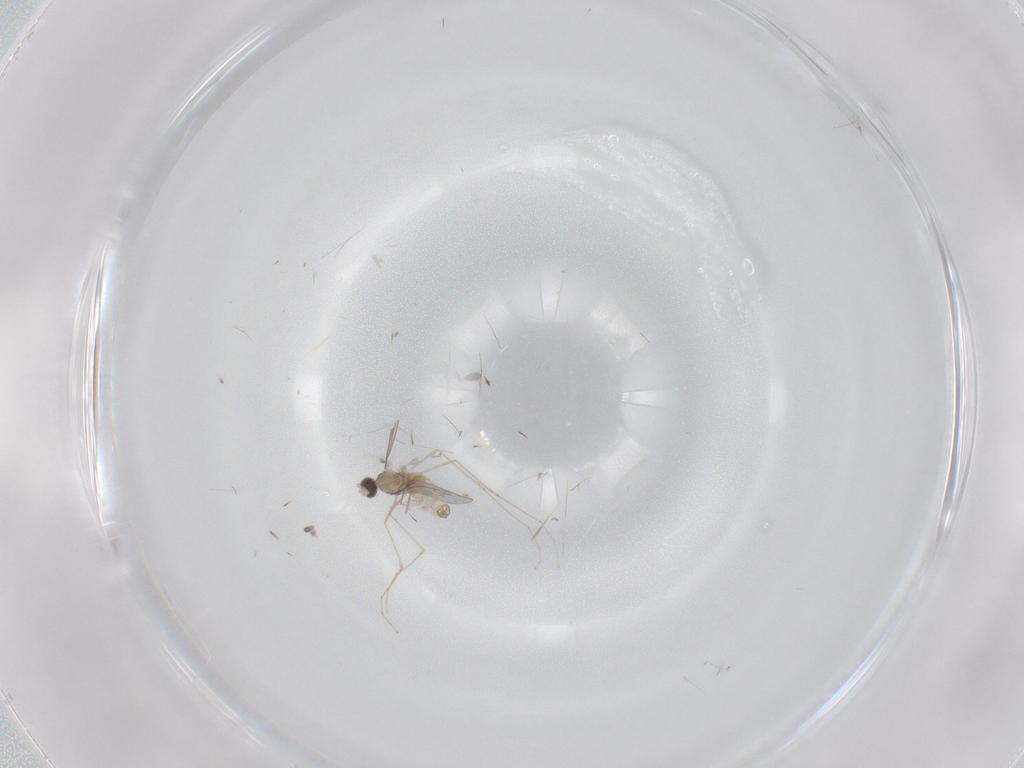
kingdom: Animalia
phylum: Arthropoda
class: Insecta
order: Diptera
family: Cecidomyiidae
